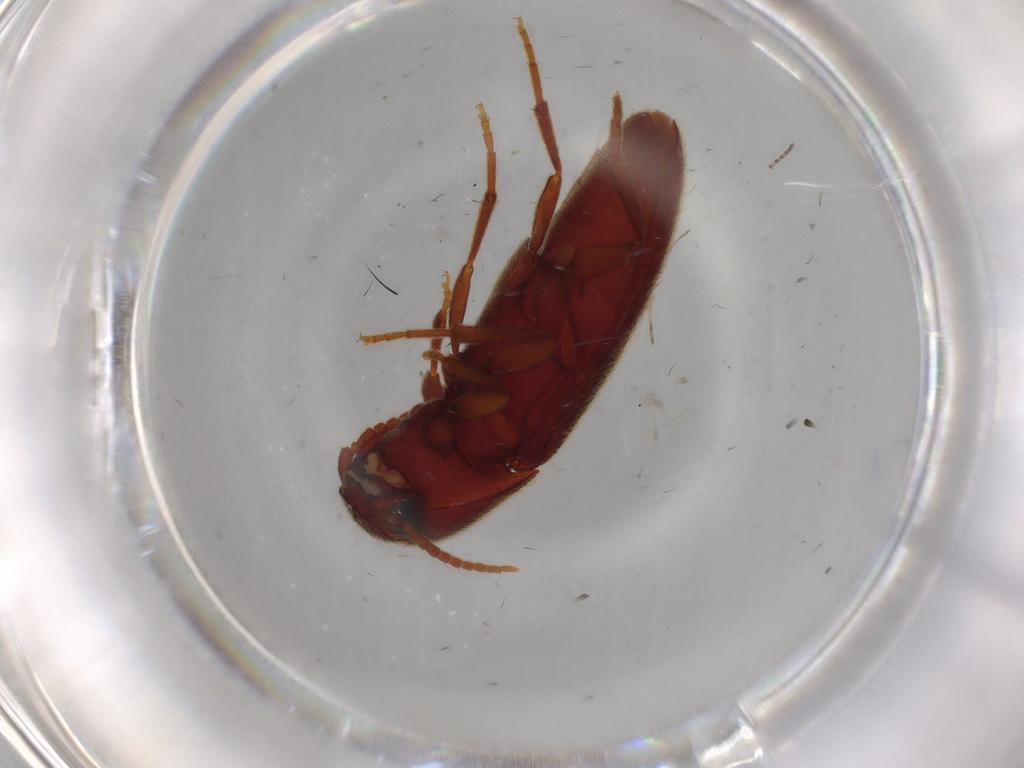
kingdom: Animalia
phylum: Arthropoda
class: Insecta
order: Coleoptera
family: Eucnemidae
